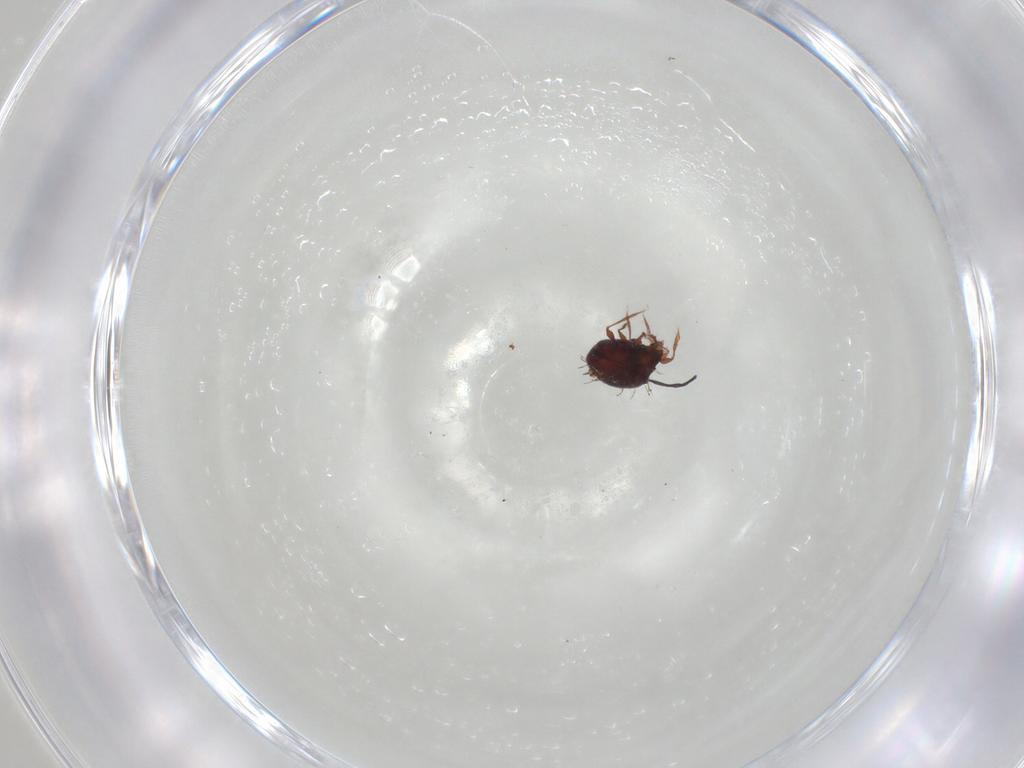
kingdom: Animalia
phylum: Arthropoda
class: Arachnida
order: Sarcoptiformes
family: Caloppiidae
